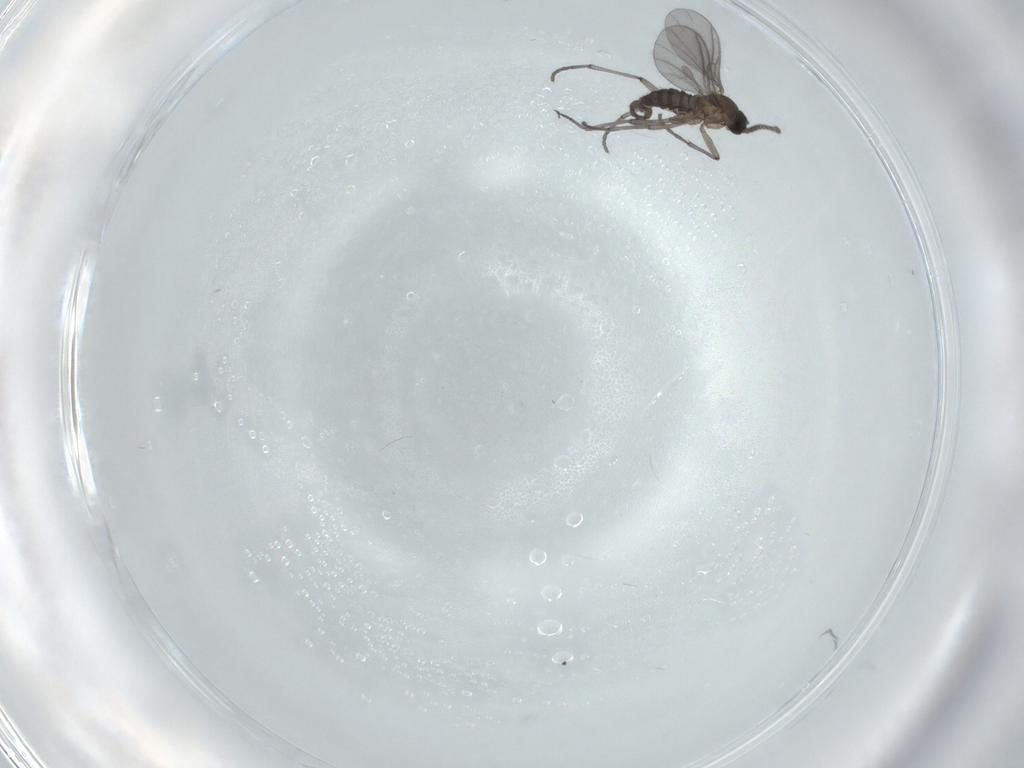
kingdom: Animalia
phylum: Arthropoda
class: Insecta
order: Diptera
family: Sciaridae
